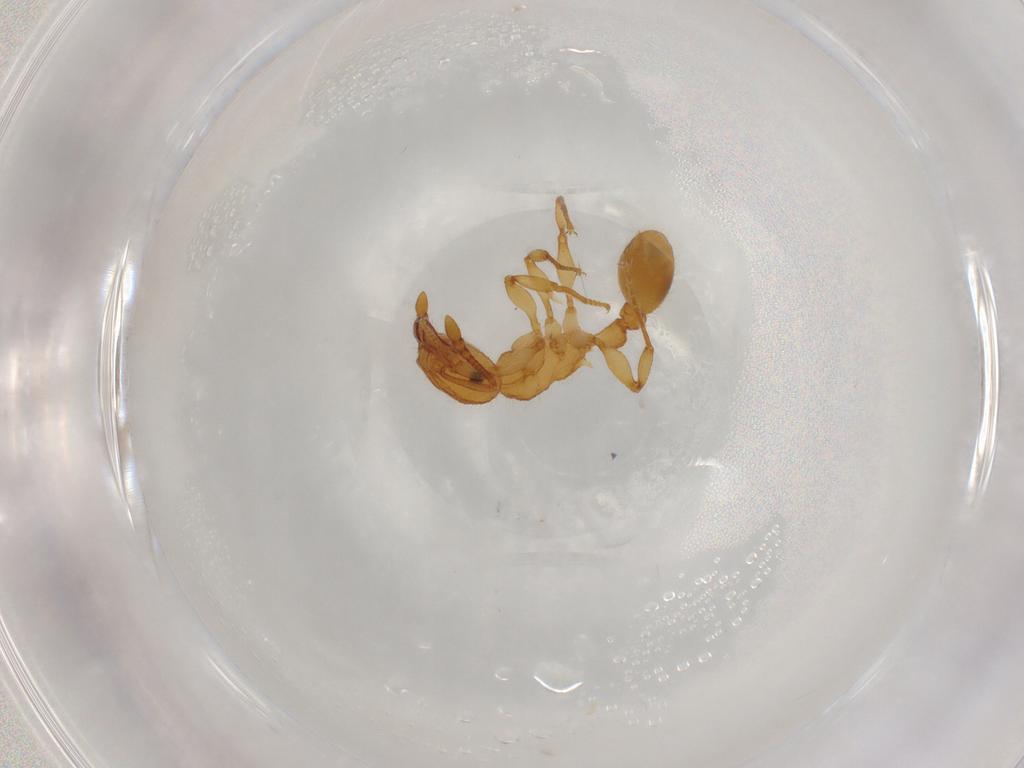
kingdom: Animalia
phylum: Arthropoda
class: Insecta
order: Hymenoptera
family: Formicidae
